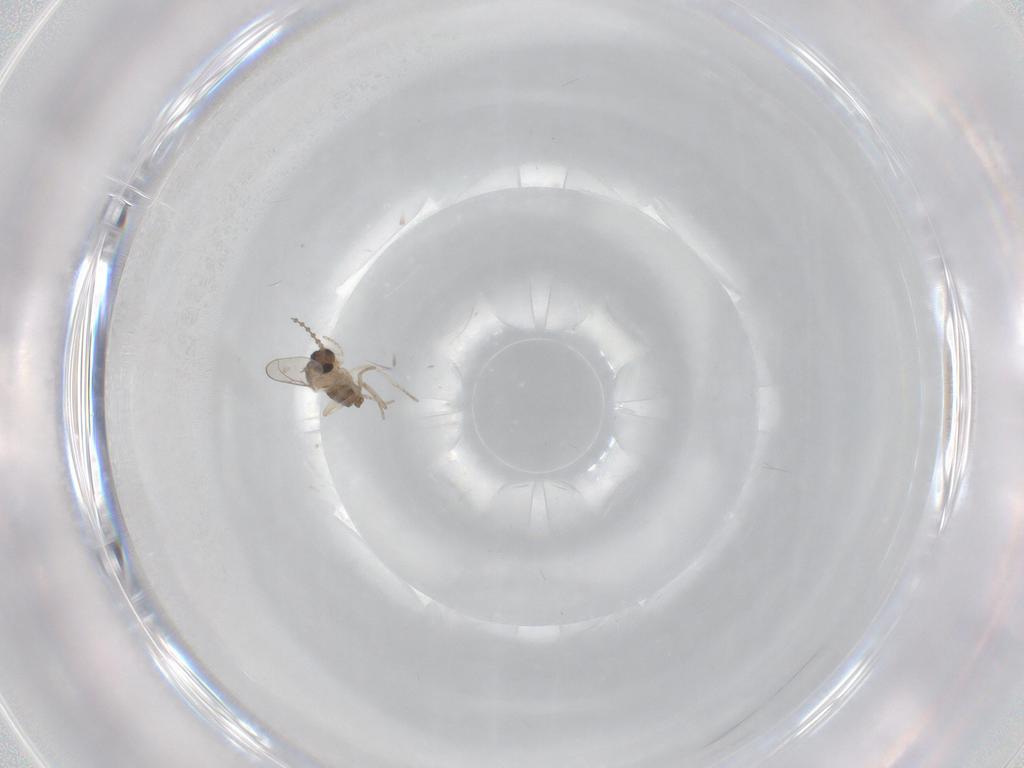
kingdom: Animalia
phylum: Arthropoda
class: Insecta
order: Diptera
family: Cecidomyiidae
